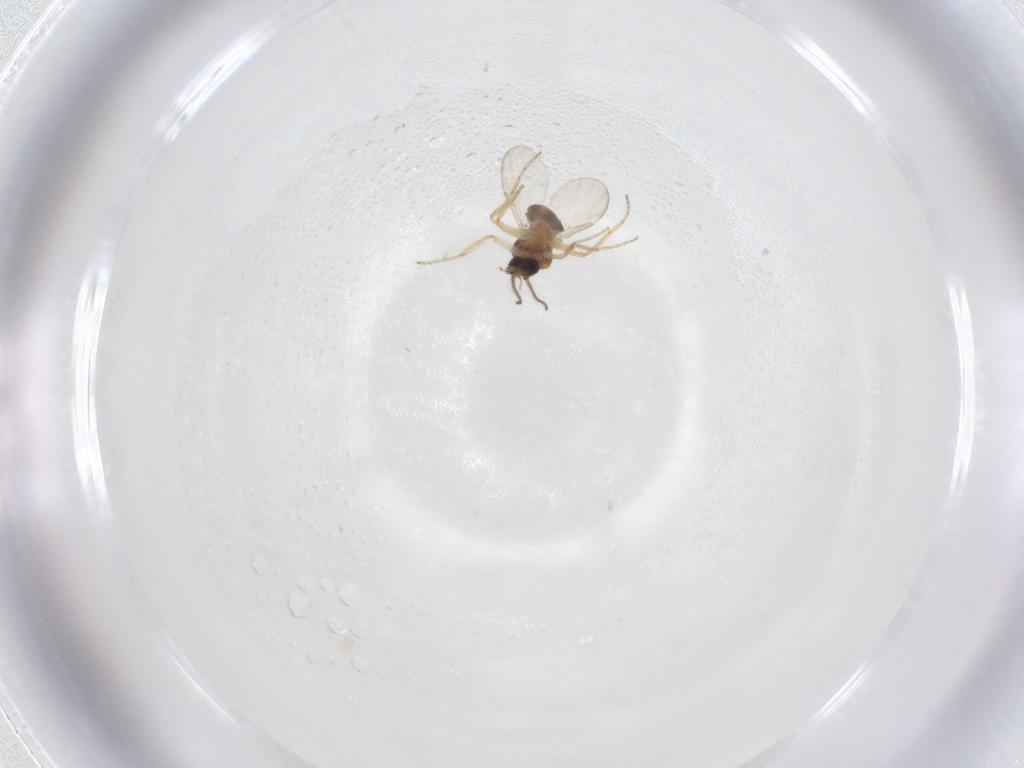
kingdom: Animalia
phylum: Arthropoda
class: Insecta
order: Diptera
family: Ceratopogonidae
